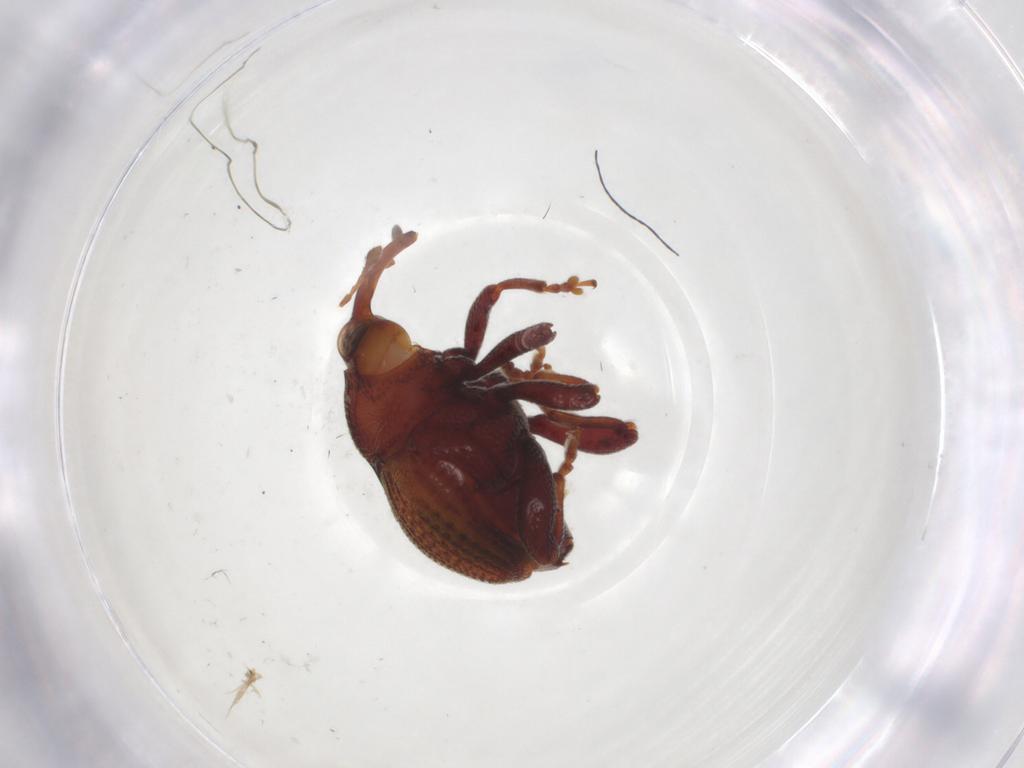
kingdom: Animalia
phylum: Arthropoda
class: Insecta
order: Coleoptera
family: Curculionidae
